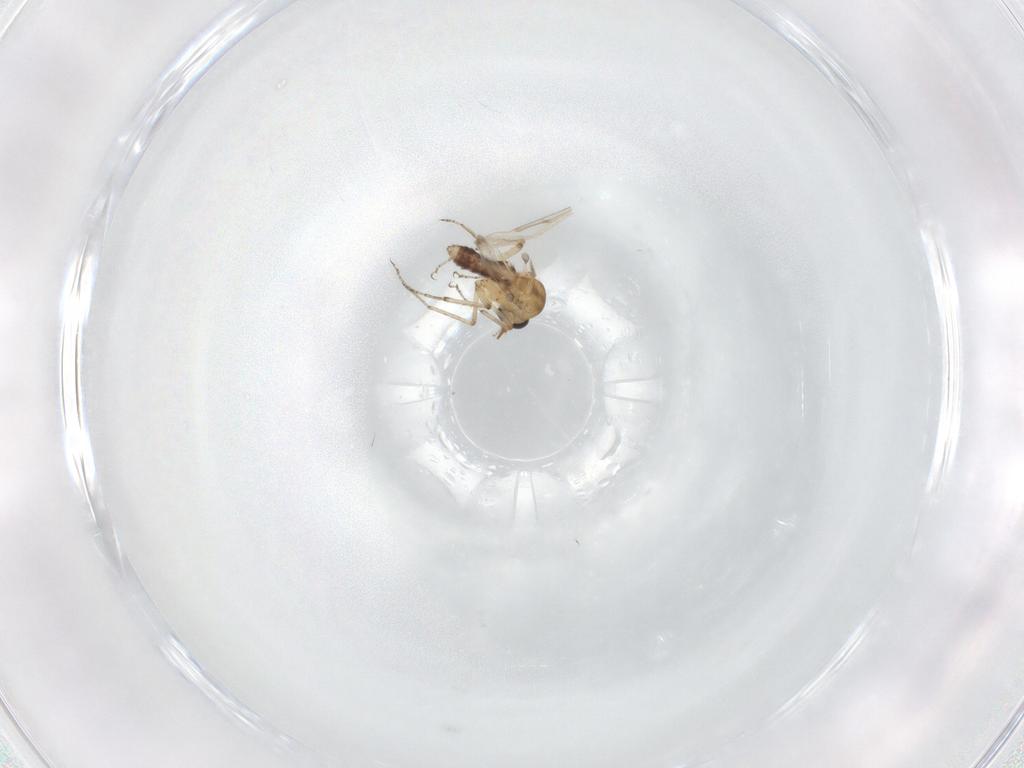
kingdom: Animalia
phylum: Arthropoda
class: Insecta
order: Diptera
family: Ceratopogonidae
